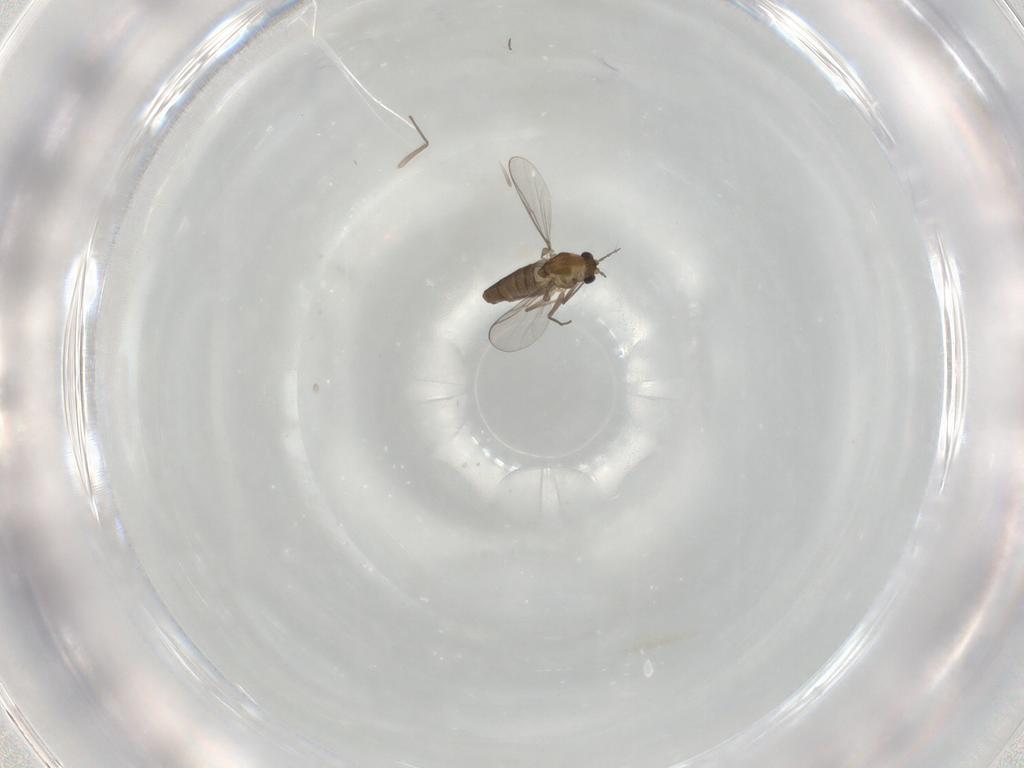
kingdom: Animalia
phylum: Arthropoda
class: Insecta
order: Diptera
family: Chironomidae
